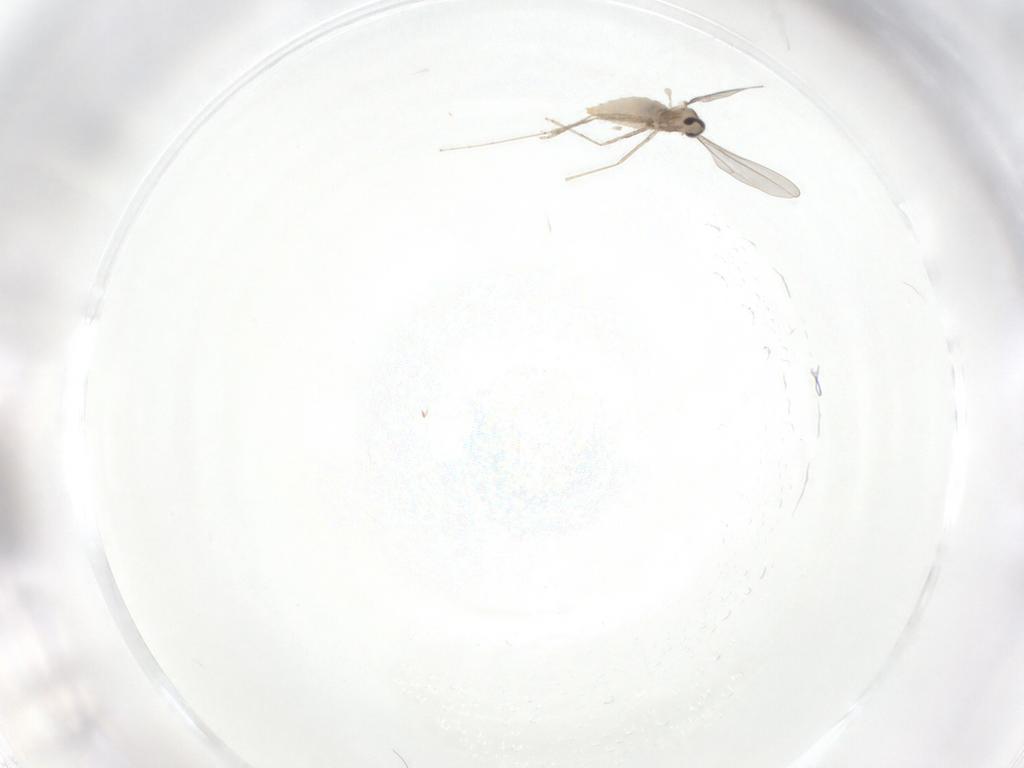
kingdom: Animalia
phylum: Arthropoda
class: Insecta
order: Diptera
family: Cecidomyiidae
